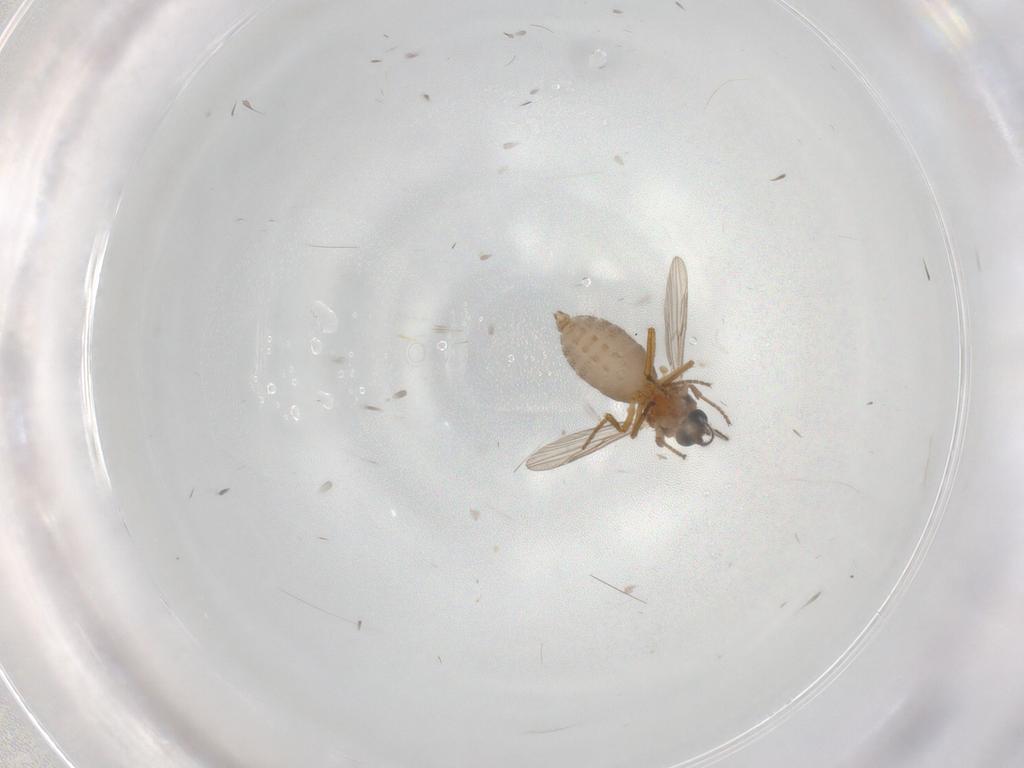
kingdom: Animalia
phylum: Arthropoda
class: Insecta
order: Diptera
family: Ceratopogonidae
